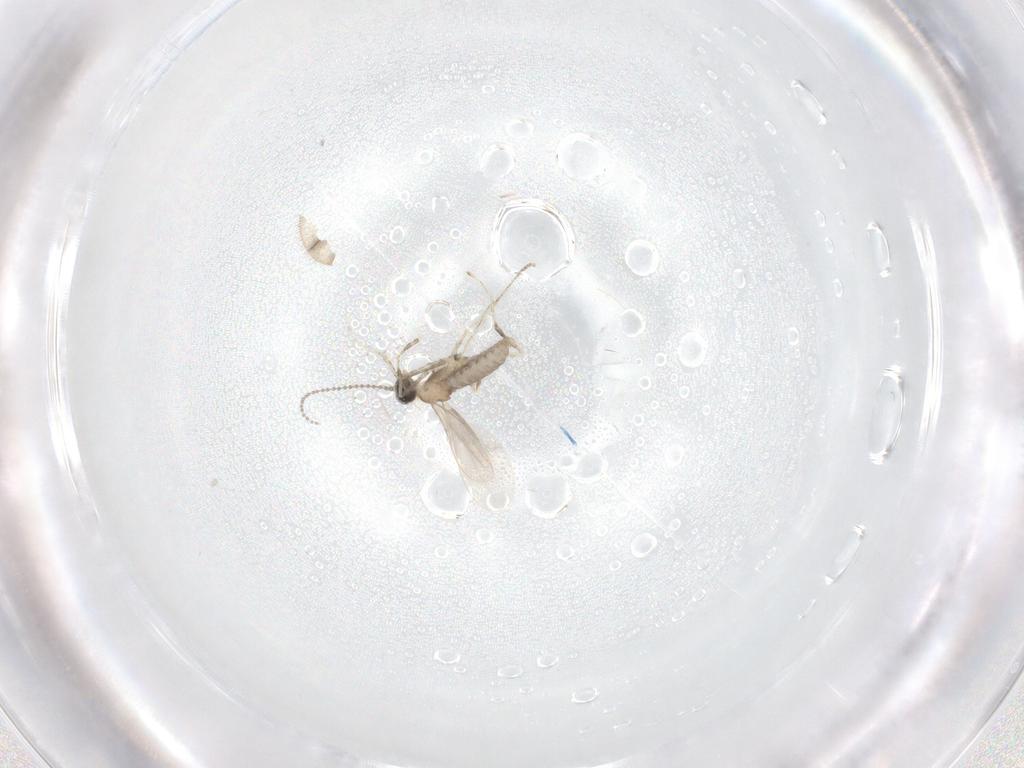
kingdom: Animalia
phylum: Arthropoda
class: Insecta
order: Diptera
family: Cecidomyiidae
